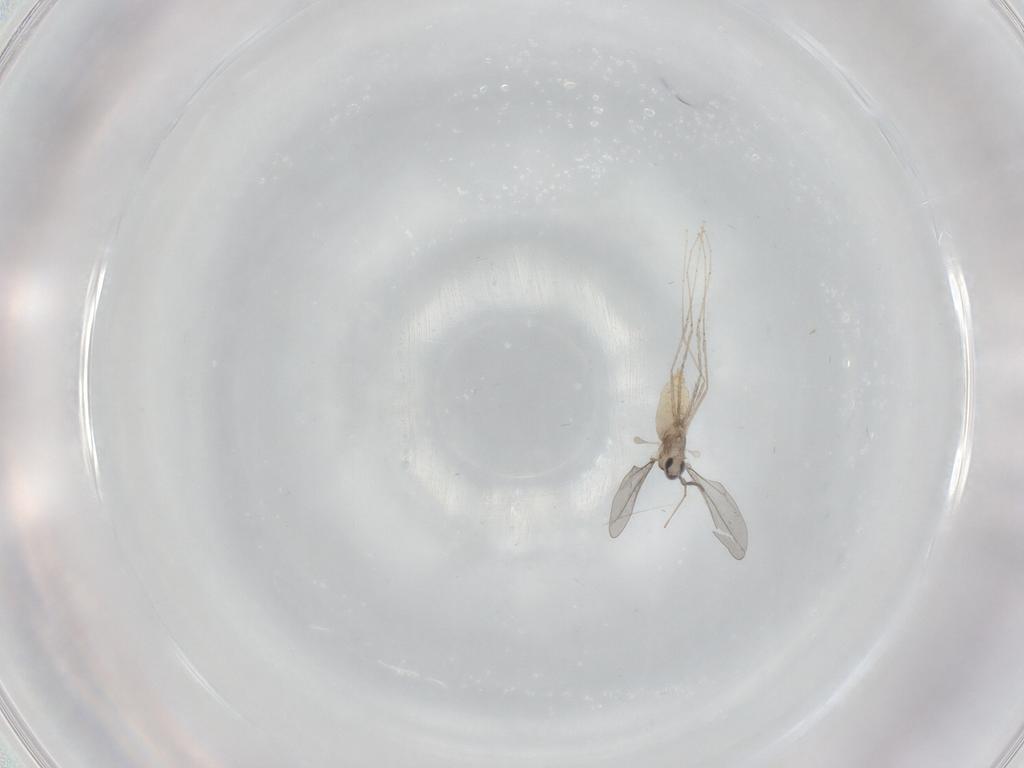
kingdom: Animalia
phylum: Arthropoda
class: Insecta
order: Diptera
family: Cecidomyiidae
